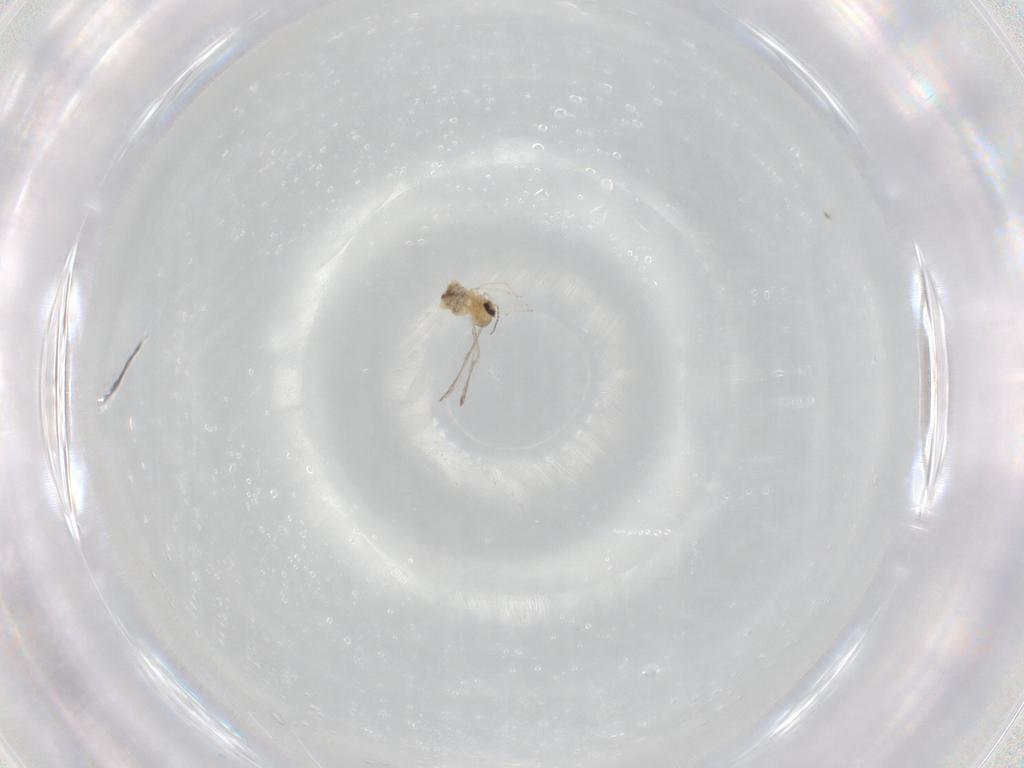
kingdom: Animalia
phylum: Arthropoda
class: Insecta
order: Diptera
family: Cecidomyiidae
